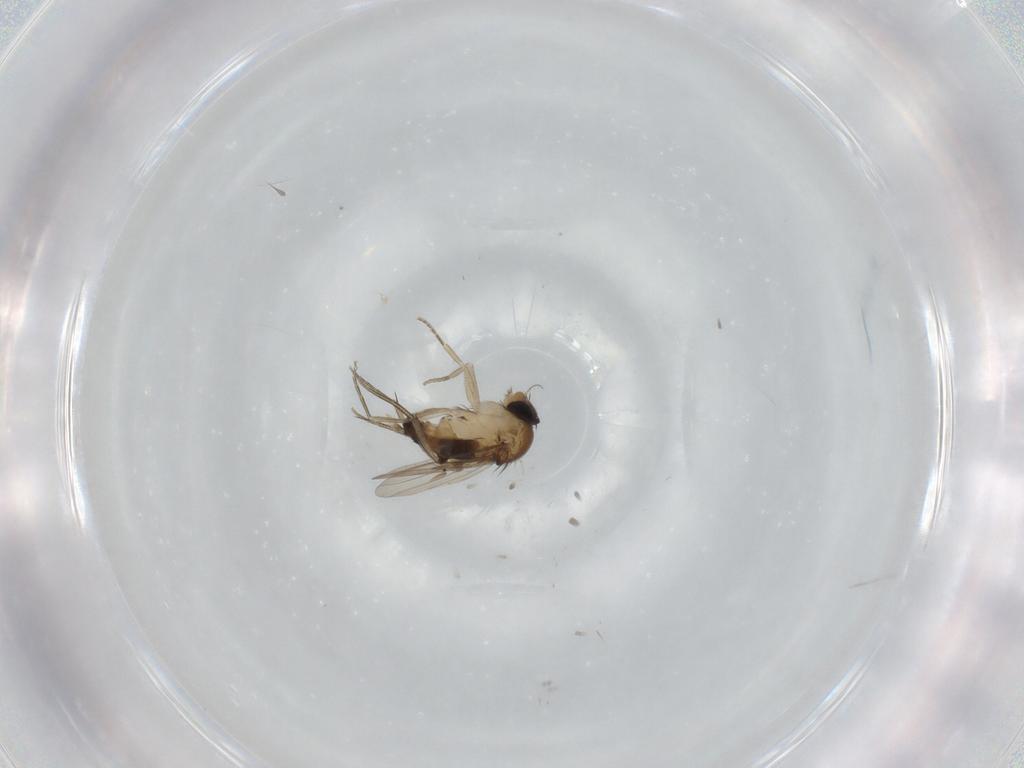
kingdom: Animalia
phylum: Arthropoda
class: Insecta
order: Diptera
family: Phoridae
